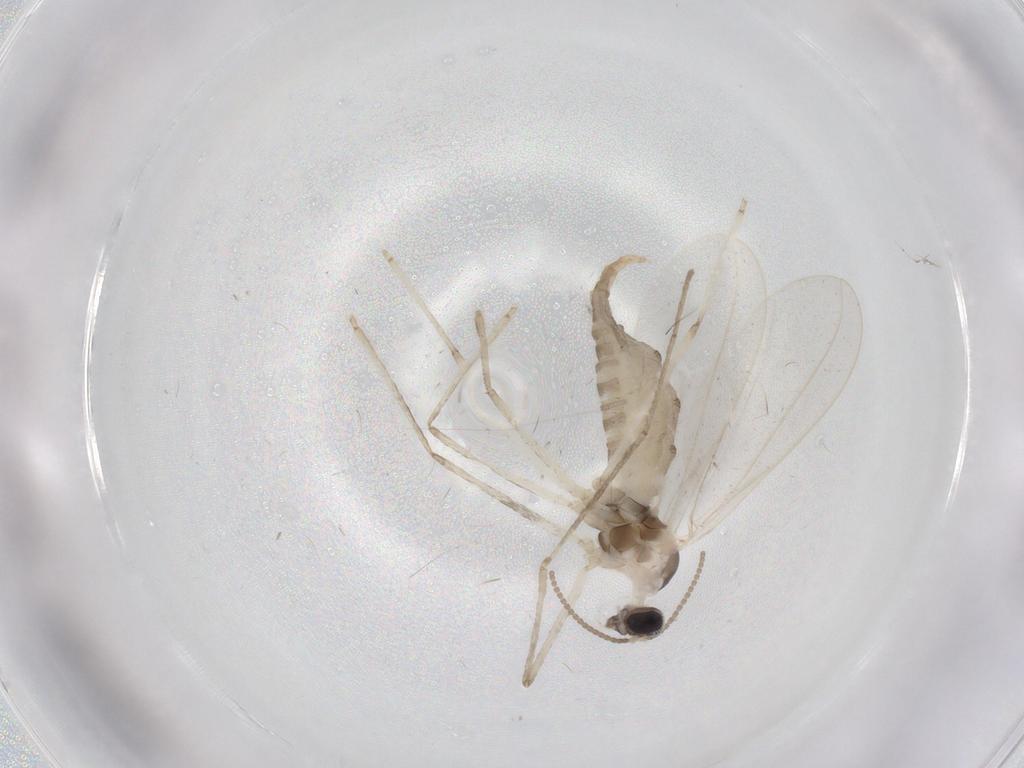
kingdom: Animalia
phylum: Arthropoda
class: Insecta
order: Diptera
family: Cecidomyiidae
